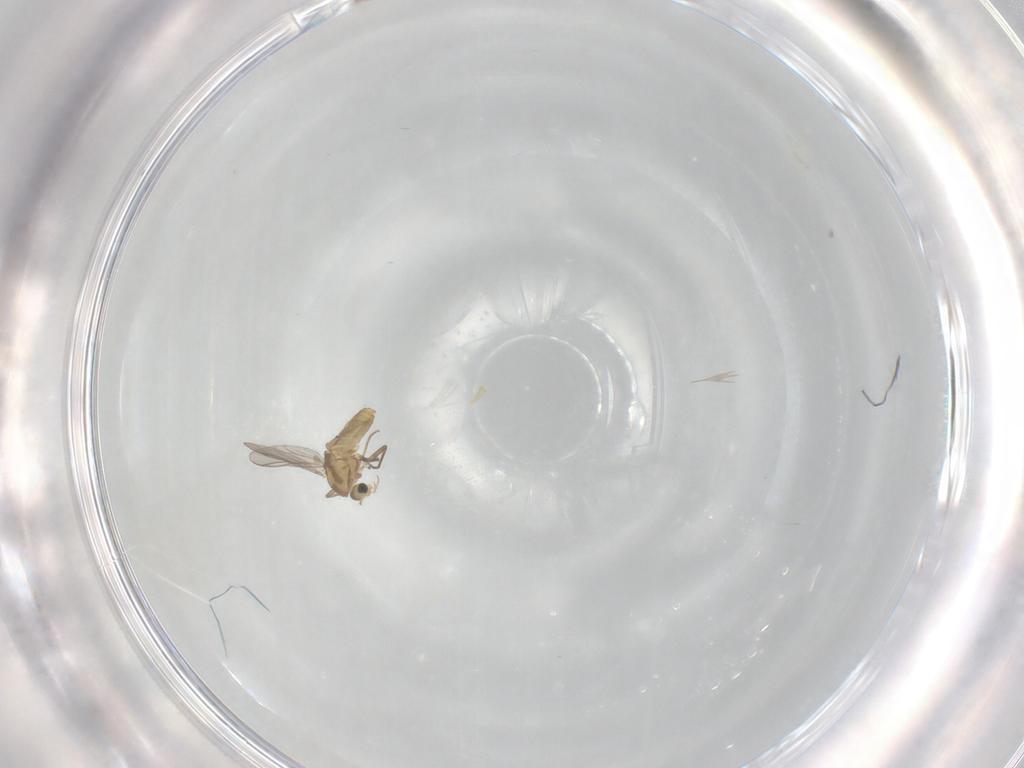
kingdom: Animalia
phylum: Arthropoda
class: Insecta
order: Diptera
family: Chironomidae
